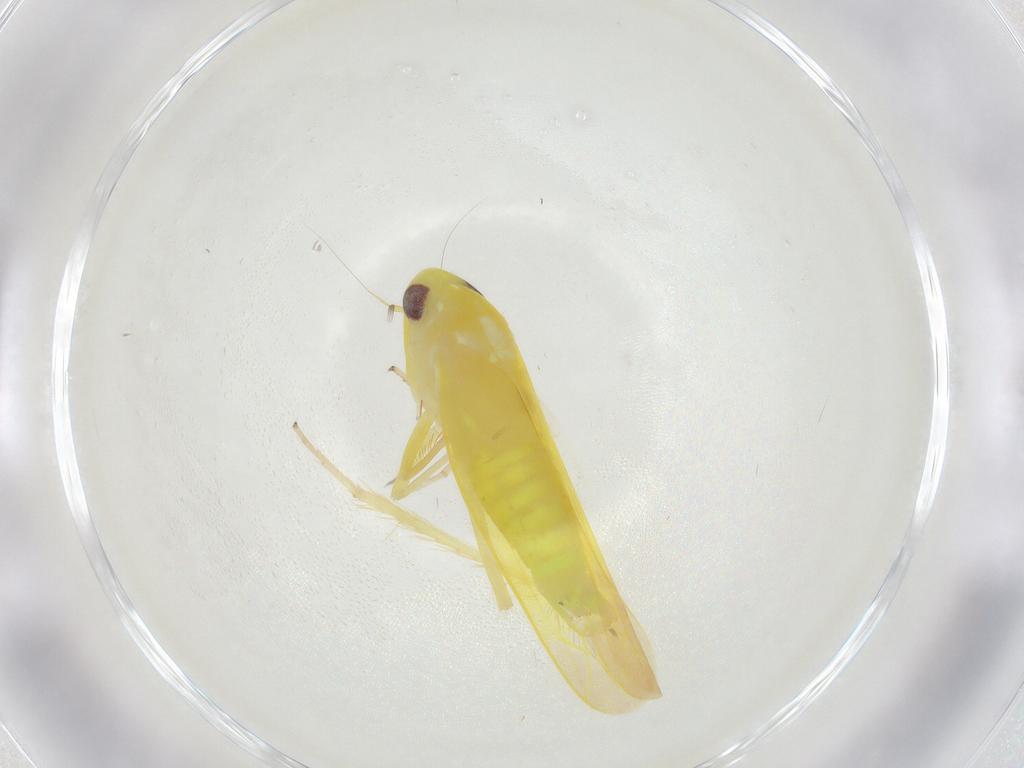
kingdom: Animalia
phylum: Arthropoda
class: Insecta
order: Hemiptera
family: Cicadellidae
